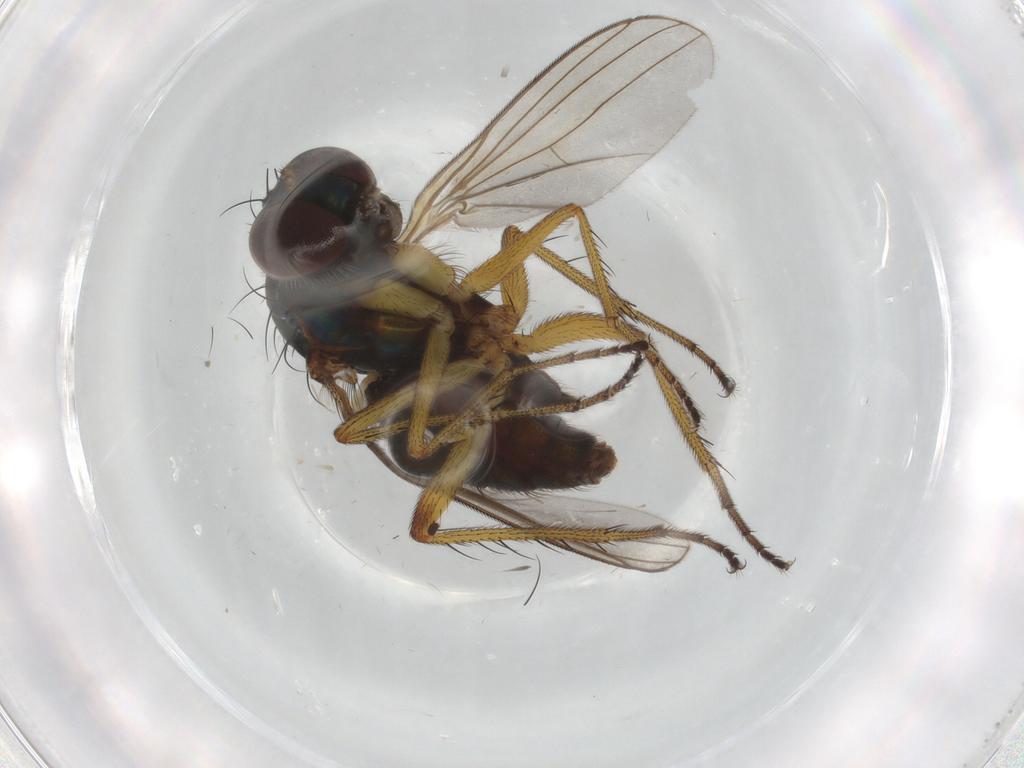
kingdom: Animalia
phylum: Arthropoda
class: Insecta
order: Diptera
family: Chironomidae
